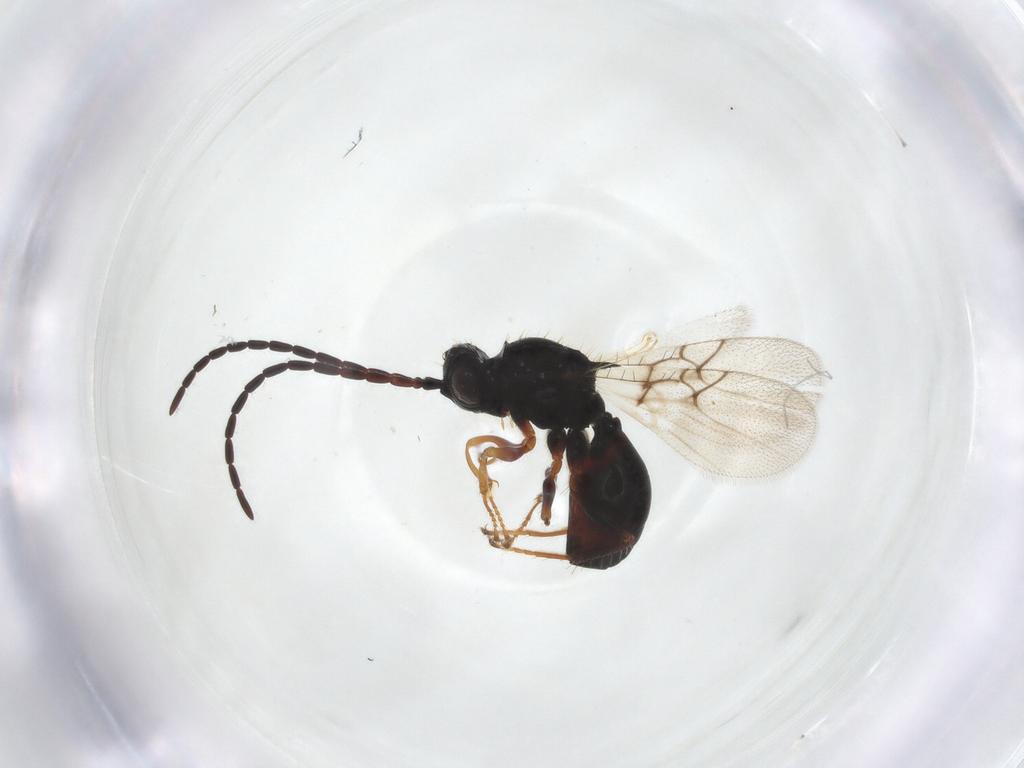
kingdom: Animalia
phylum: Arthropoda
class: Insecta
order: Hymenoptera
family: Figitidae
